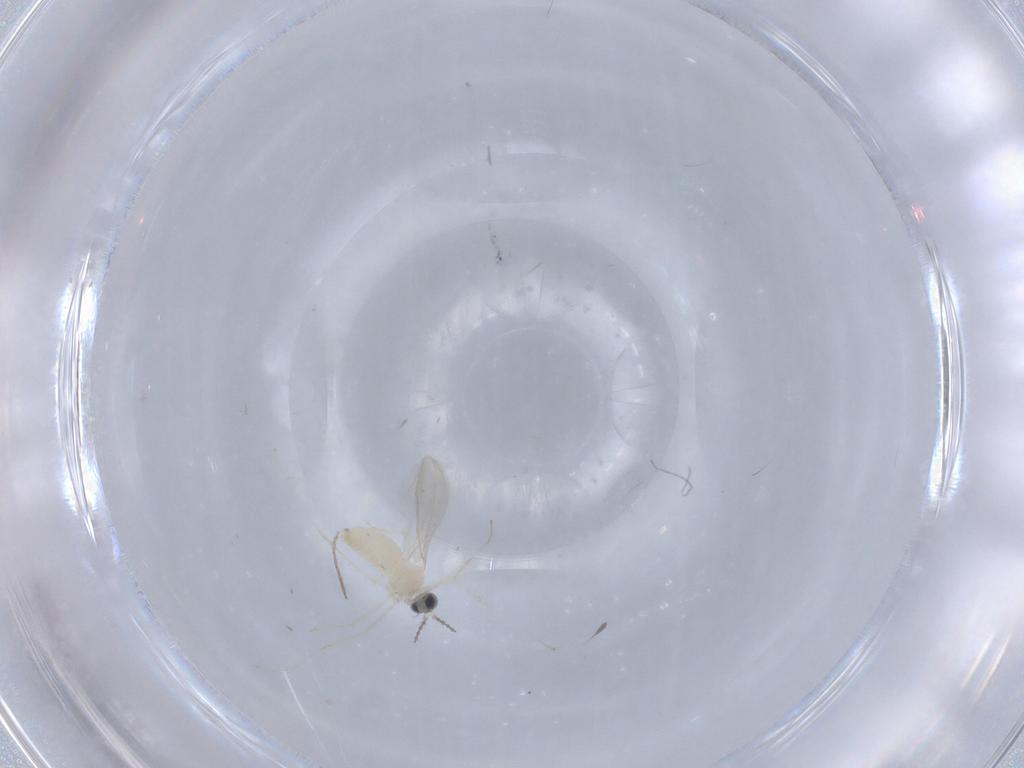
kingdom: Animalia
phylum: Arthropoda
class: Insecta
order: Diptera
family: Cecidomyiidae
